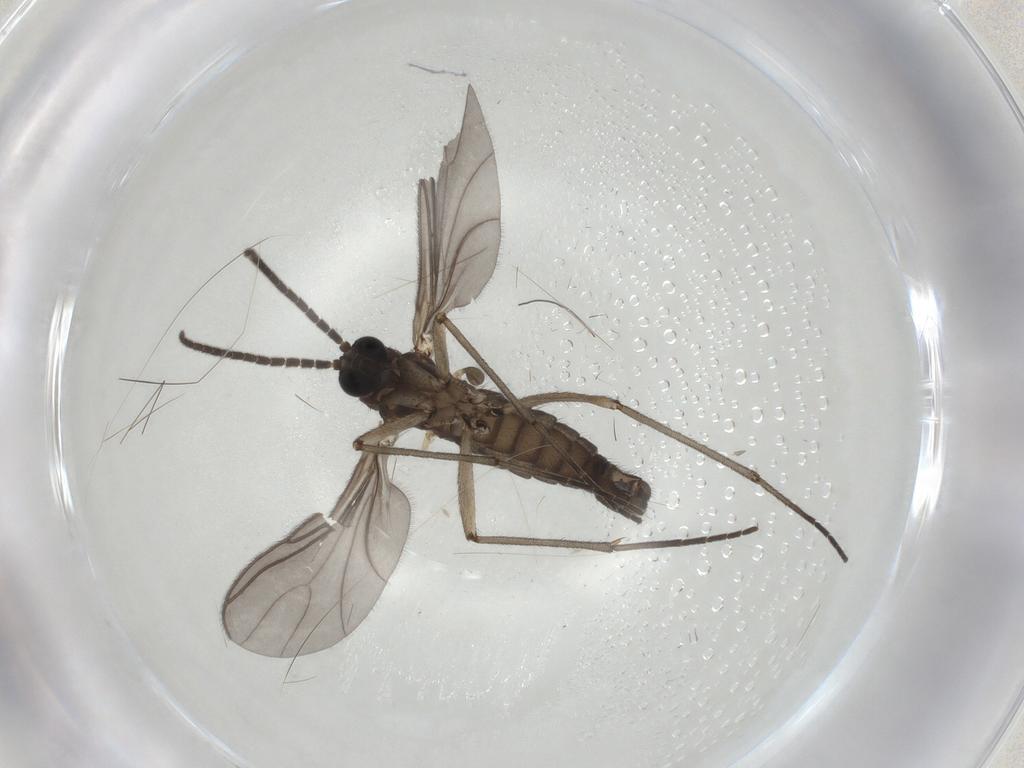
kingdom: Animalia
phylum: Arthropoda
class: Insecta
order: Diptera
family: Sciaridae
